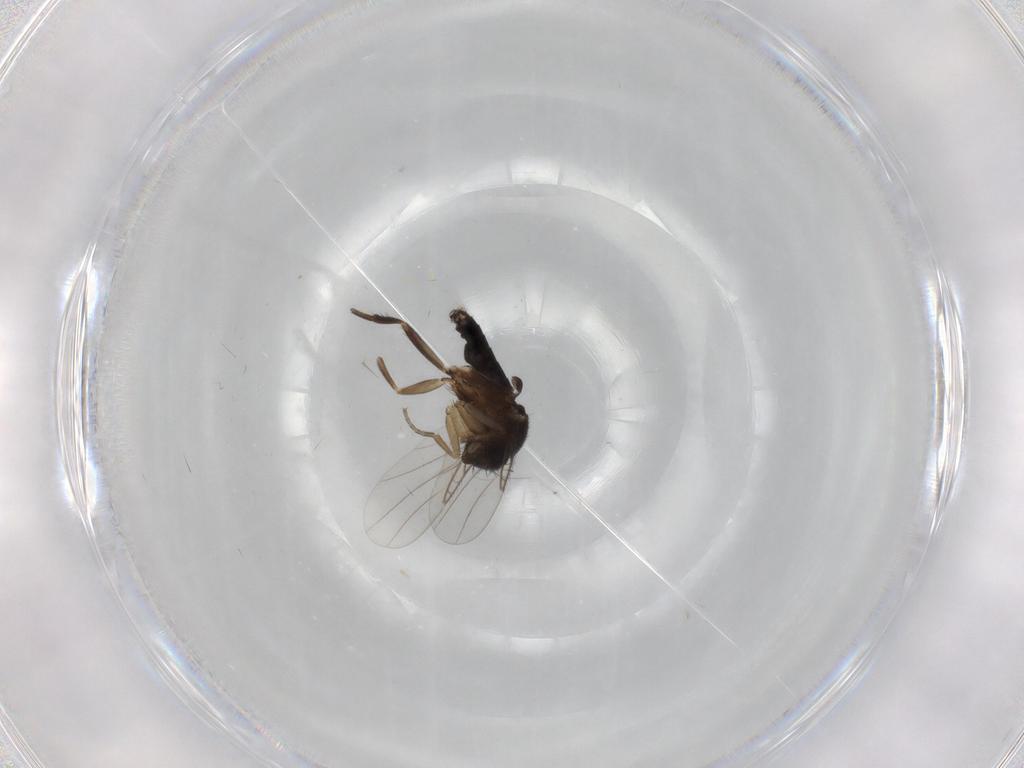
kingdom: Animalia
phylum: Arthropoda
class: Insecta
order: Diptera
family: Phoridae
